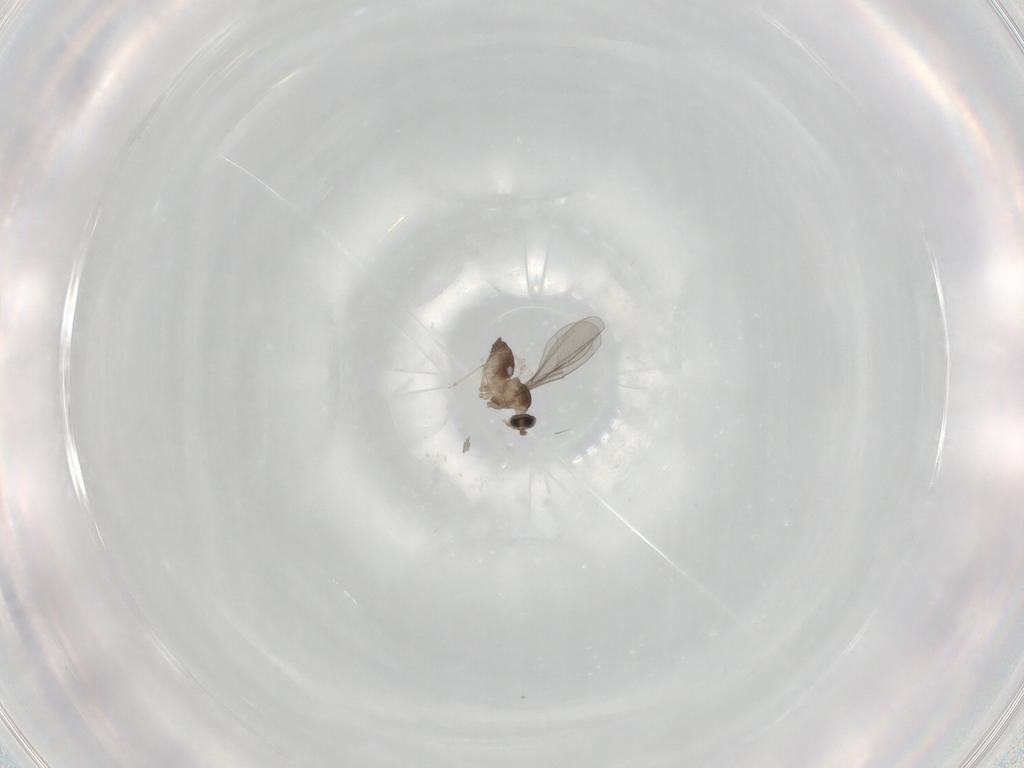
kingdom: Animalia
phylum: Arthropoda
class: Insecta
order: Diptera
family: Cecidomyiidae
